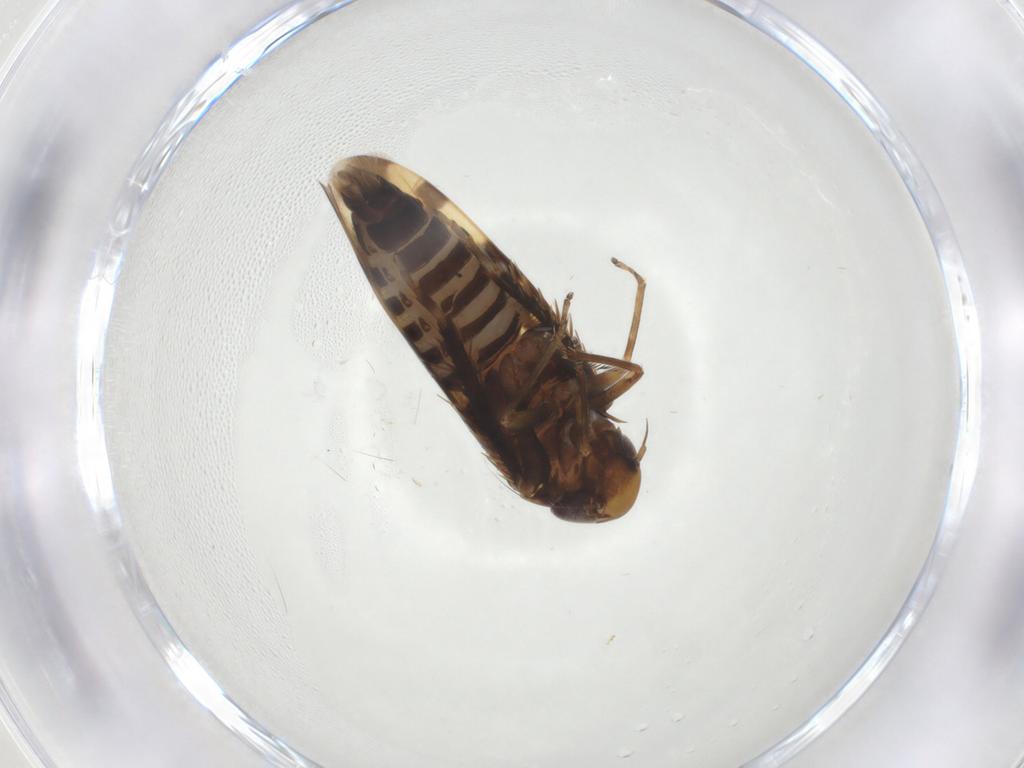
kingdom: Animalia
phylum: Arthropoda
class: Insecta
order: Hemiptera
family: Cicadellidae
